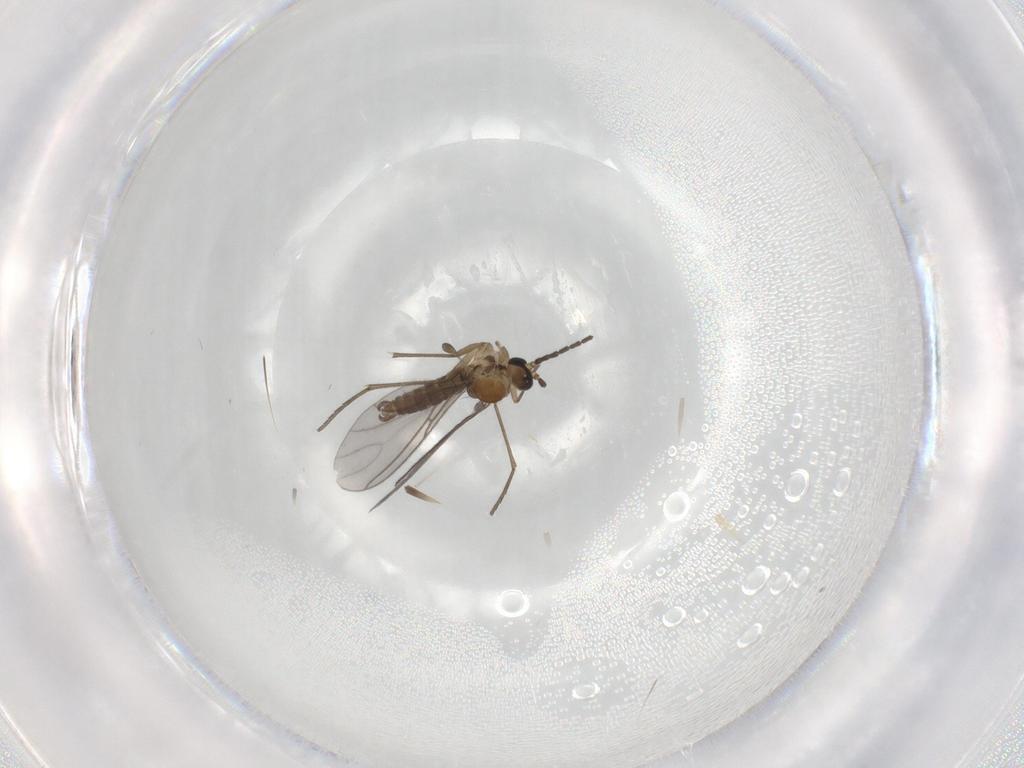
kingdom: Animalia
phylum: Arthropoda
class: Insecta
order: Diptera
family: Sciaridae
